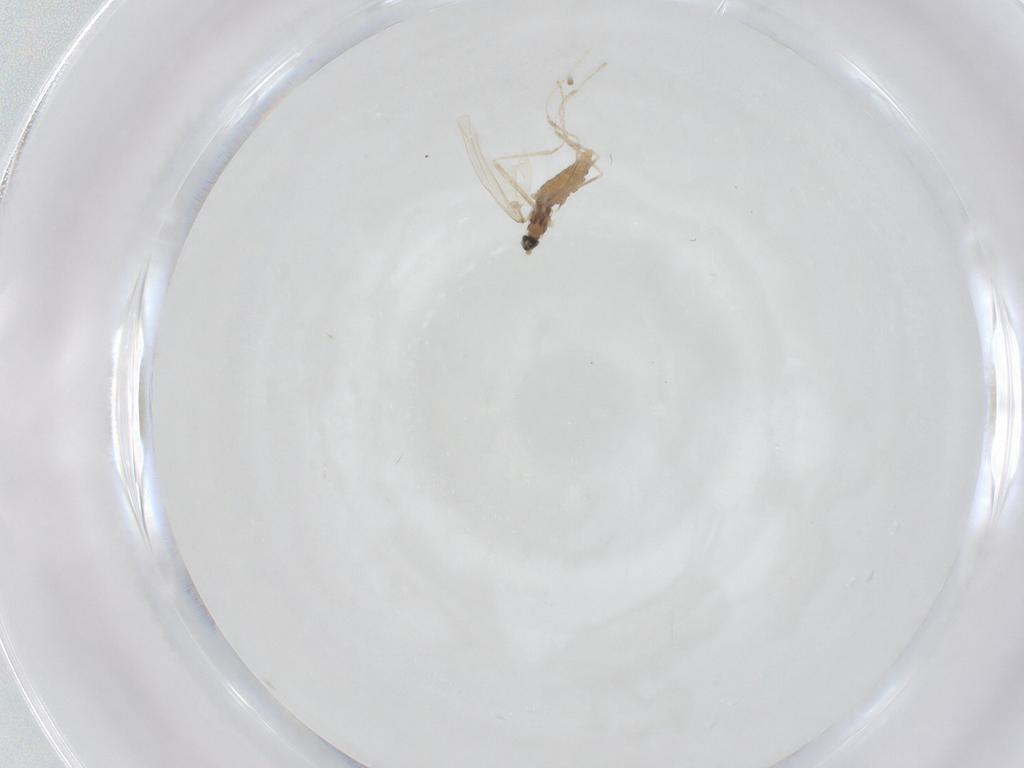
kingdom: Animalia
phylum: Arthropoda
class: Insecta
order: Diptera
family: Cecidomyiidae
